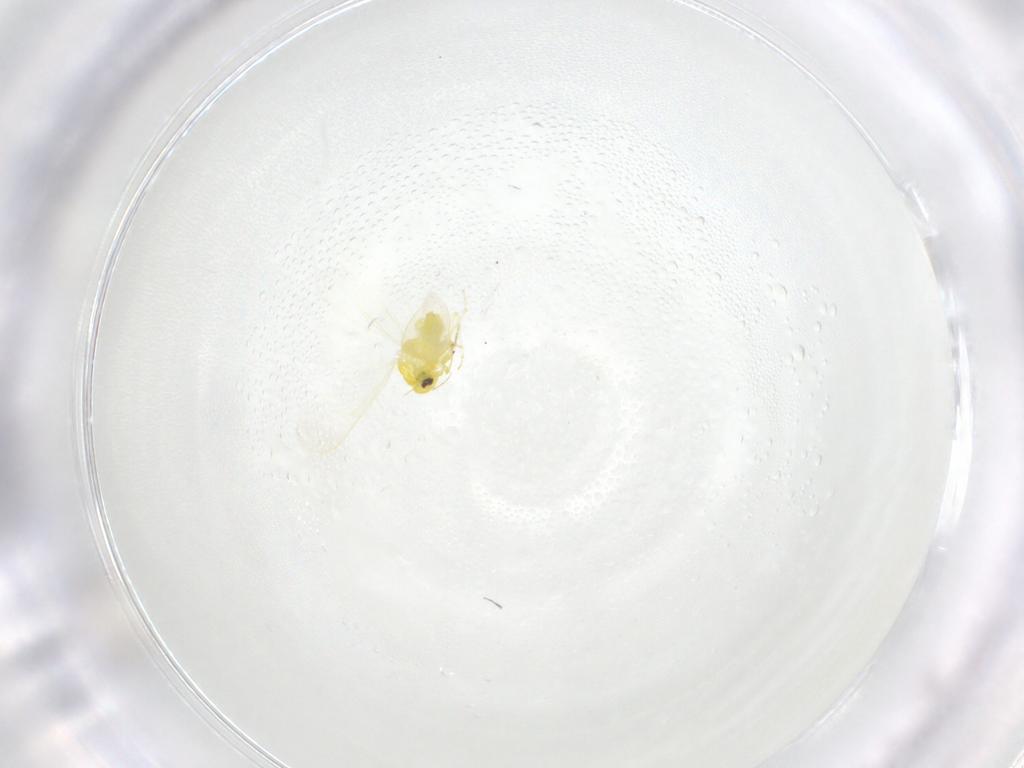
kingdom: Animalia
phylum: Arthropoda
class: Insecta
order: Hemiptera
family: Aleyrodidae
